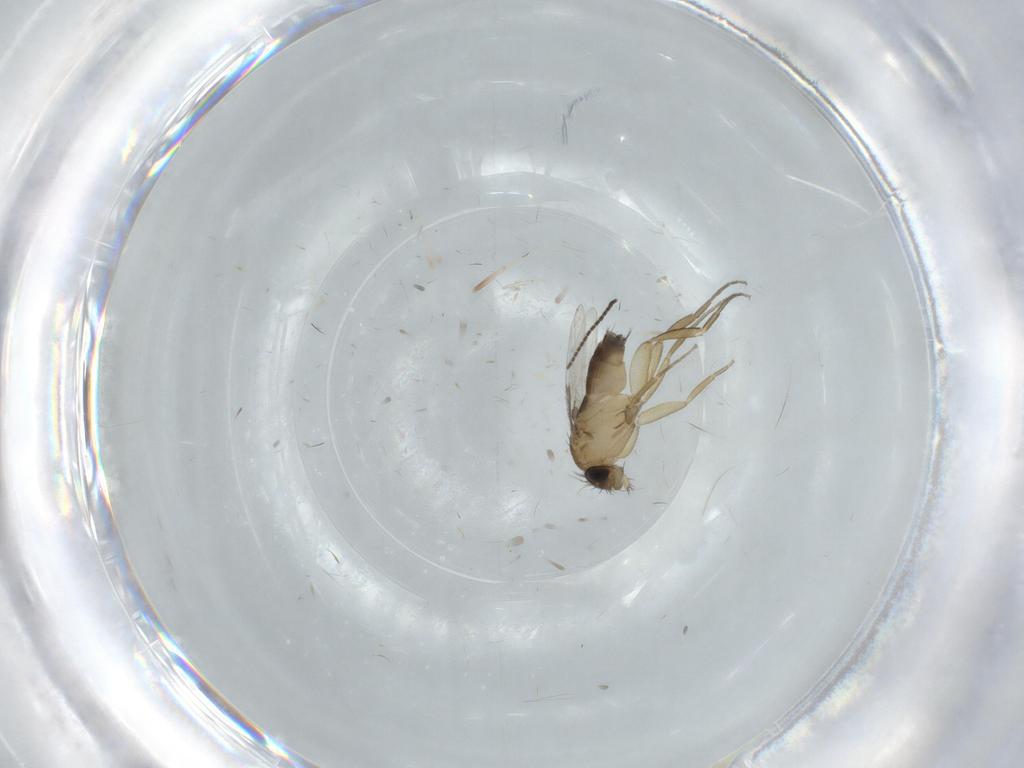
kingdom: Animalia
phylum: Arthropoda
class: Insecta
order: Diptera
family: Sciaridae
